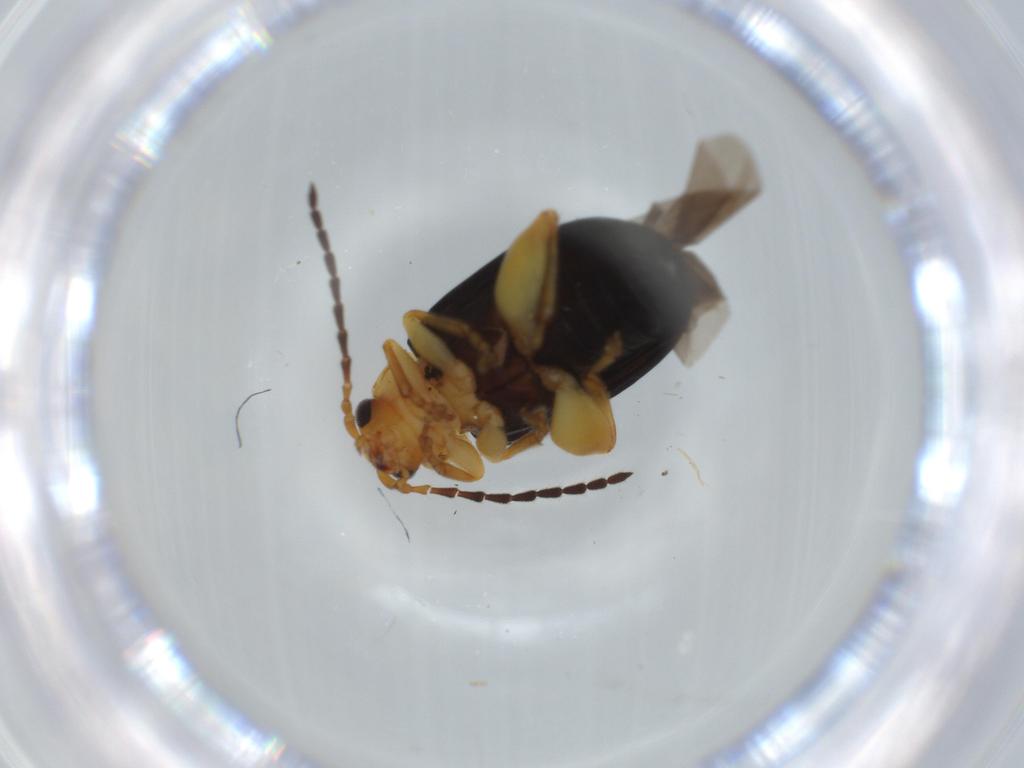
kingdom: Animalia
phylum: Arthropoda
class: Insecta
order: Coleoptera
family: Chrysomelidae
